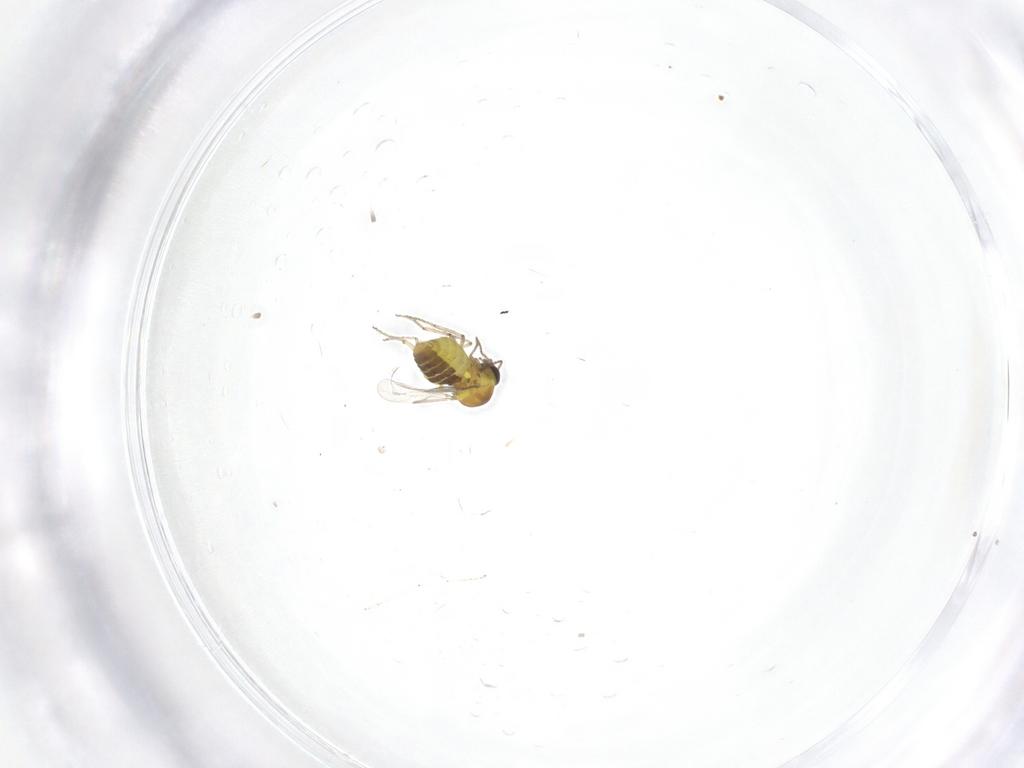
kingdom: Animalia
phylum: Arthropoda
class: Insecta
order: Diptera
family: Ceratopogonidae
